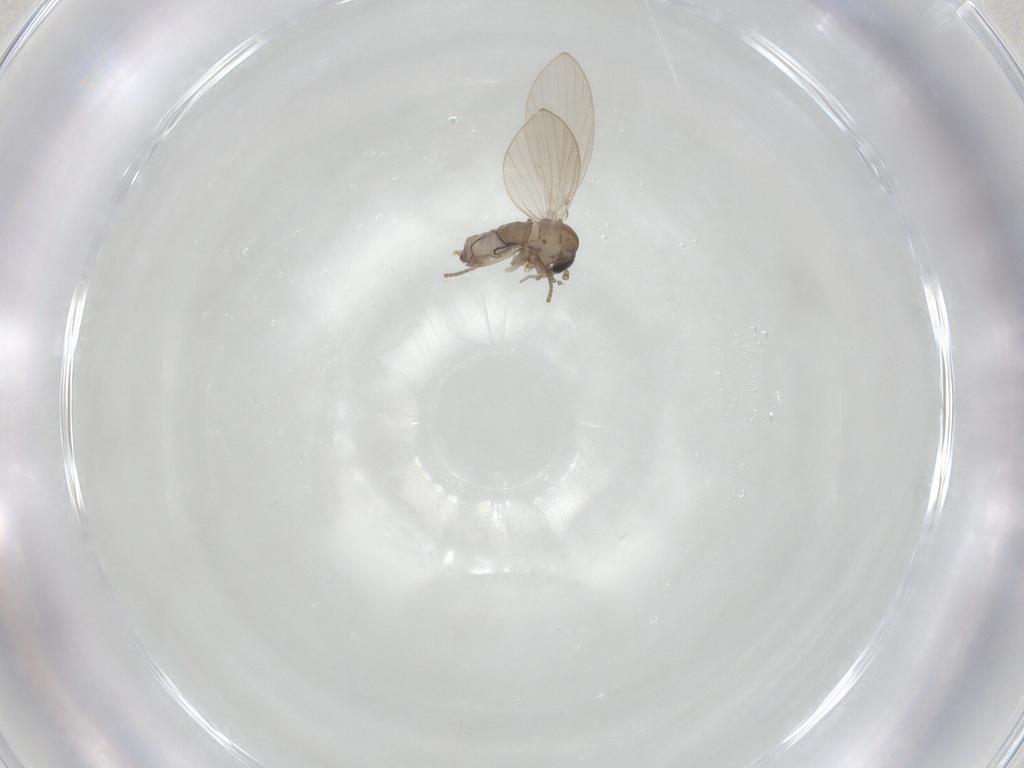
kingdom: Animalia
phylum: Arthropoda
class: Insecta
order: Diptera
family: Psychodidae
